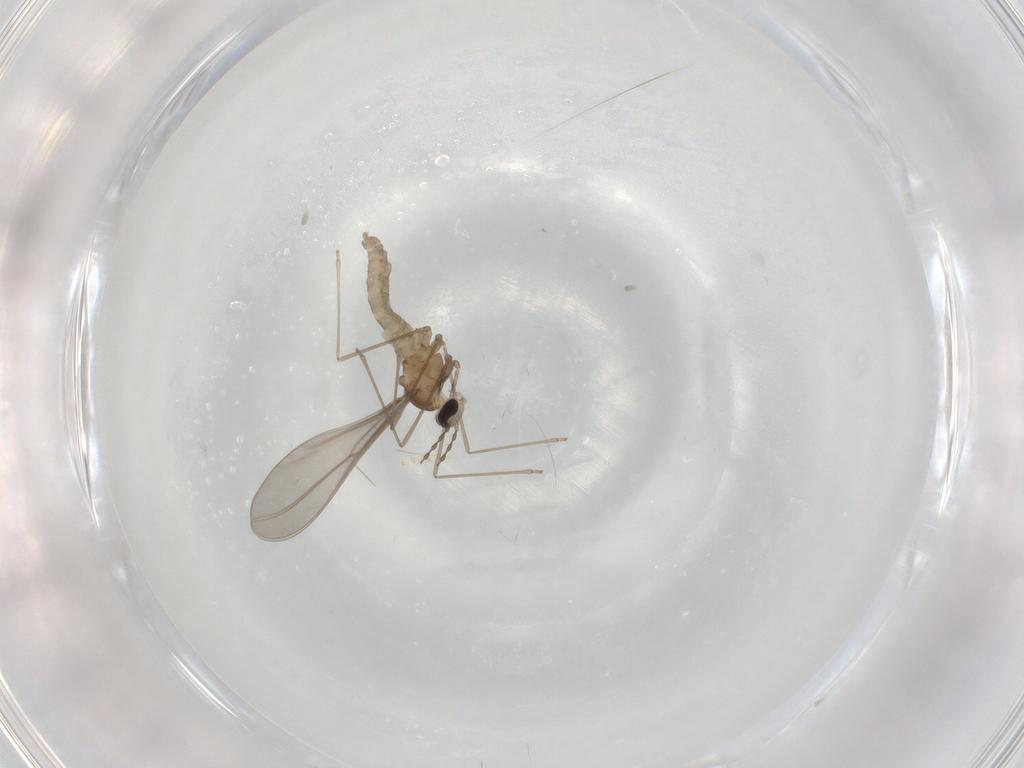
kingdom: Animalia
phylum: Arthropoda
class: Insecta
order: Diptera
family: Cecidomyiidae
